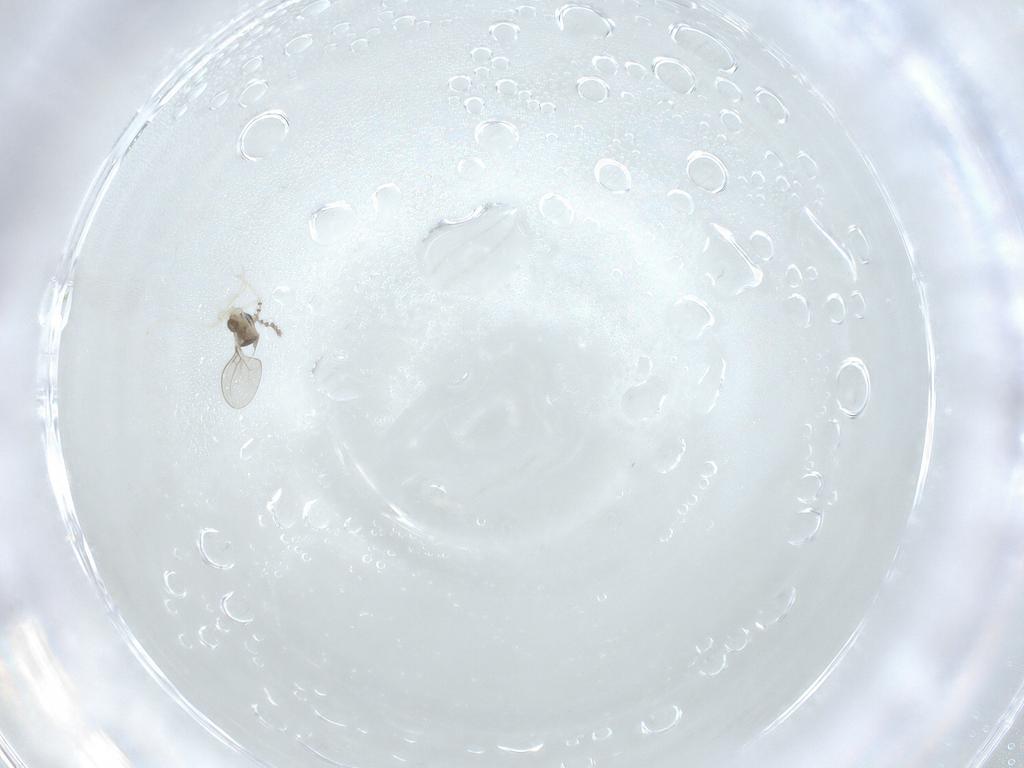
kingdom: Animalia
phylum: Arthropoda
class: Insecta
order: Diptera
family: Cecidomyiidae
